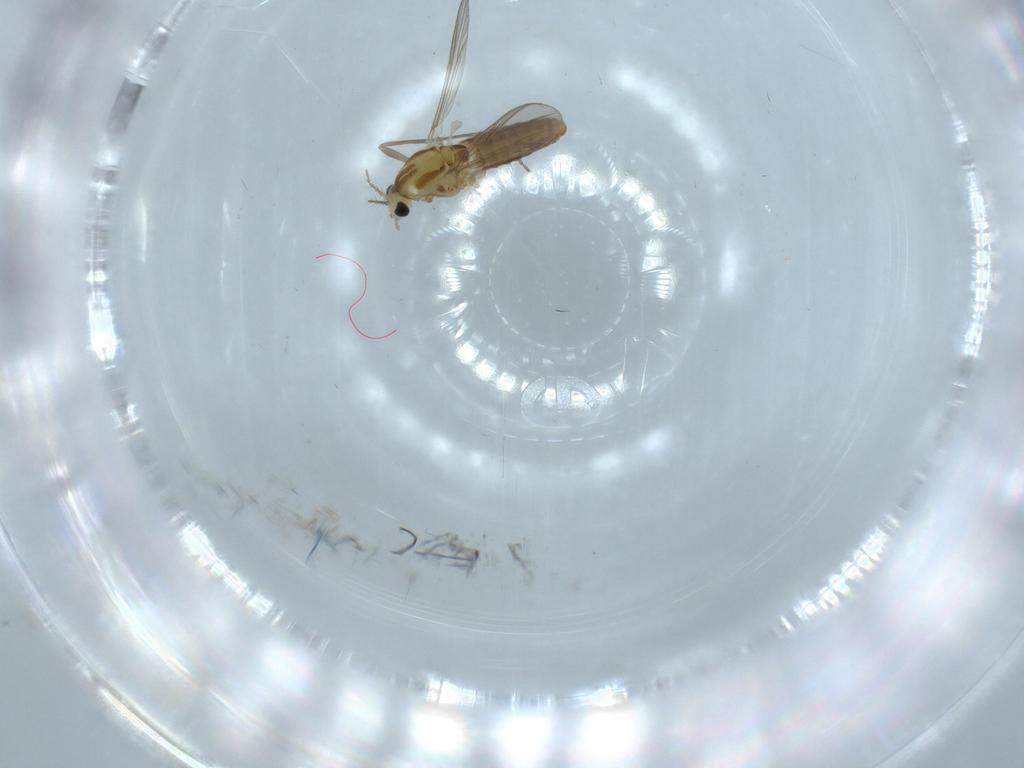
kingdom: Animalia
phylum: Arthropoda
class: Insecta
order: Diptera
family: Chironomidae
